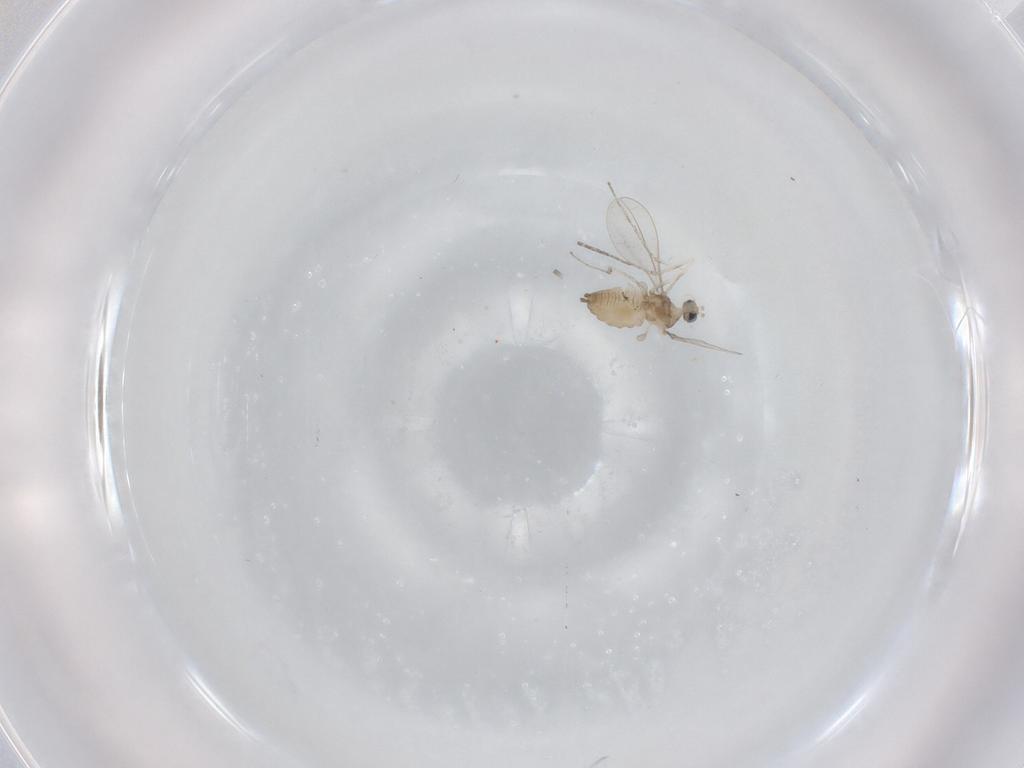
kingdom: Animalia
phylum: Arthropoda
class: Insecta
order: Diptera
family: Cecidomyiidae
